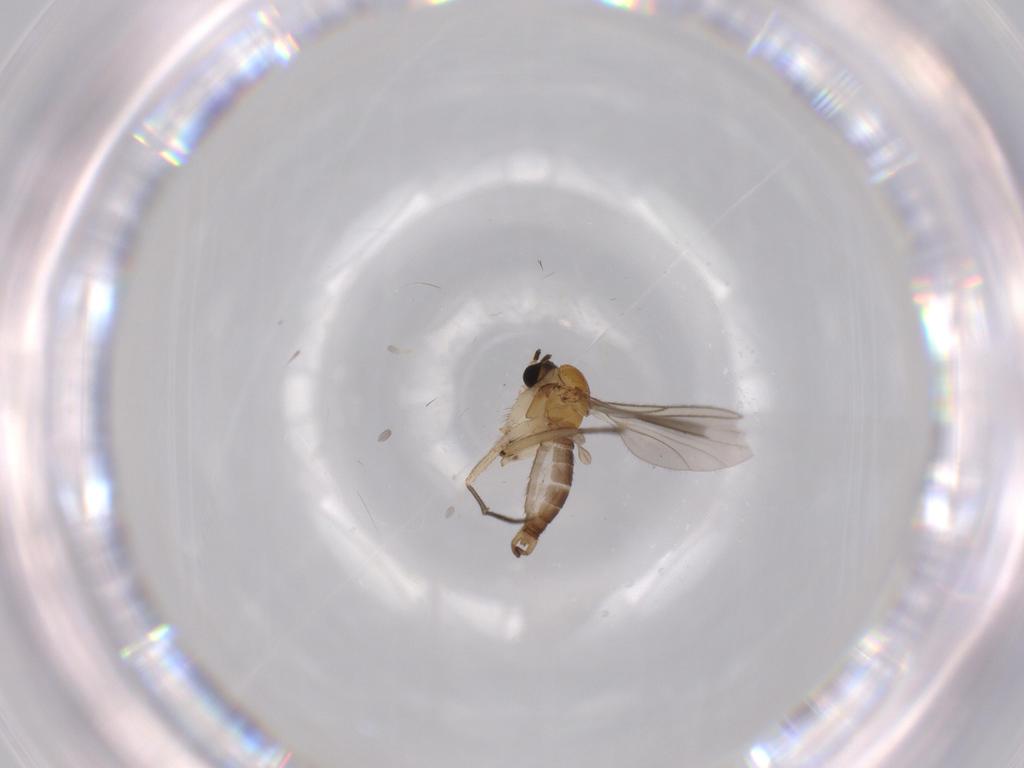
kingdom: Animalia
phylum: Arthropoda
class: Insecta
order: Diptera
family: Sciaridae
